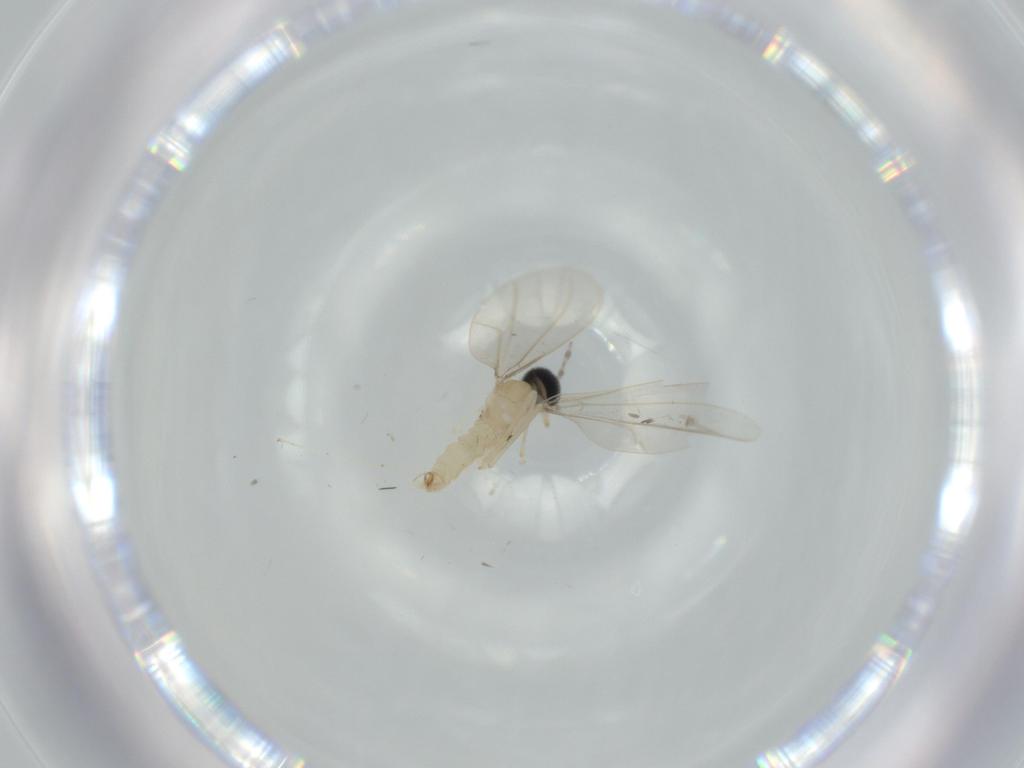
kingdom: Animalia
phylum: Arthropoda
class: Insecta
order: Diptera
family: Cecidomyiidae
